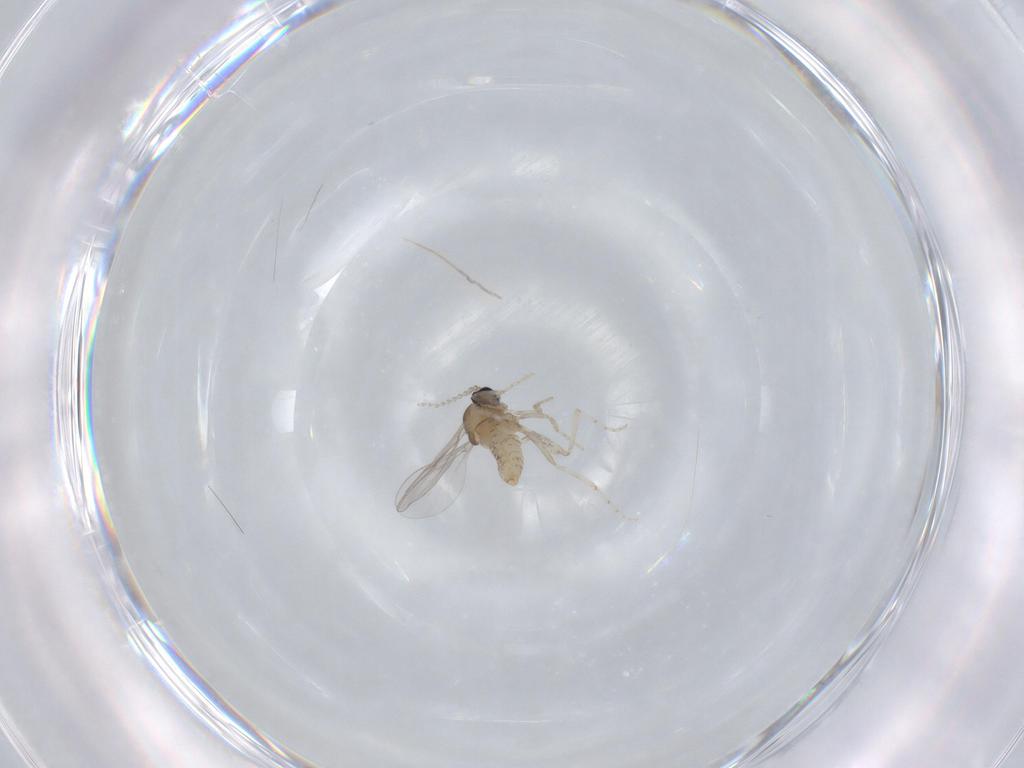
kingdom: Animalia
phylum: Arthropoda
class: Insecta
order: Diptera
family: Cecidomyiidae
